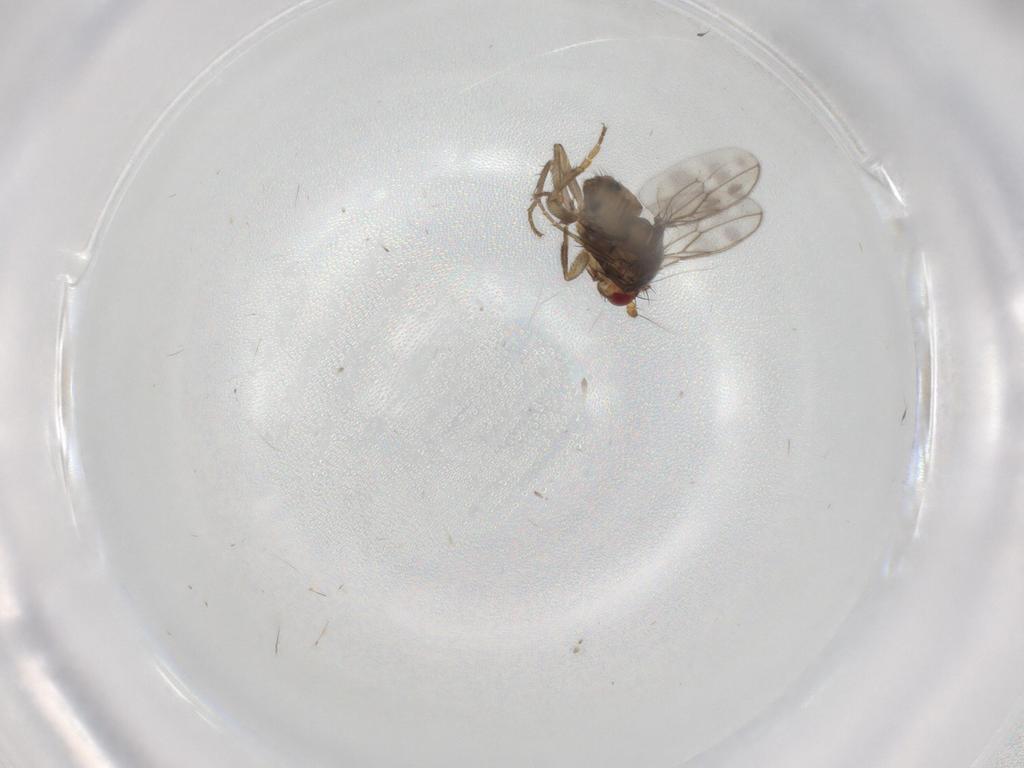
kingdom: Animalia
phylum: Arthropoda
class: Insecta
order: Diptera
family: Sphaeroceridae
